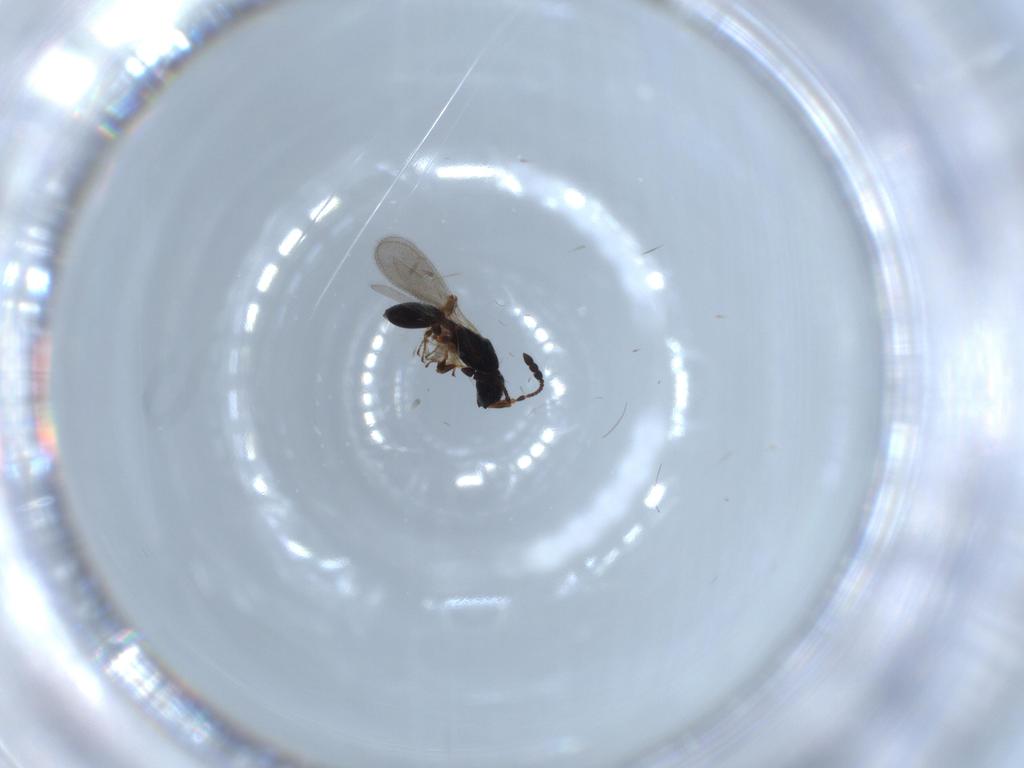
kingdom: Animalia
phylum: Arthropoda
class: Insecta
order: Hymenoptera
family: Diapriidae
